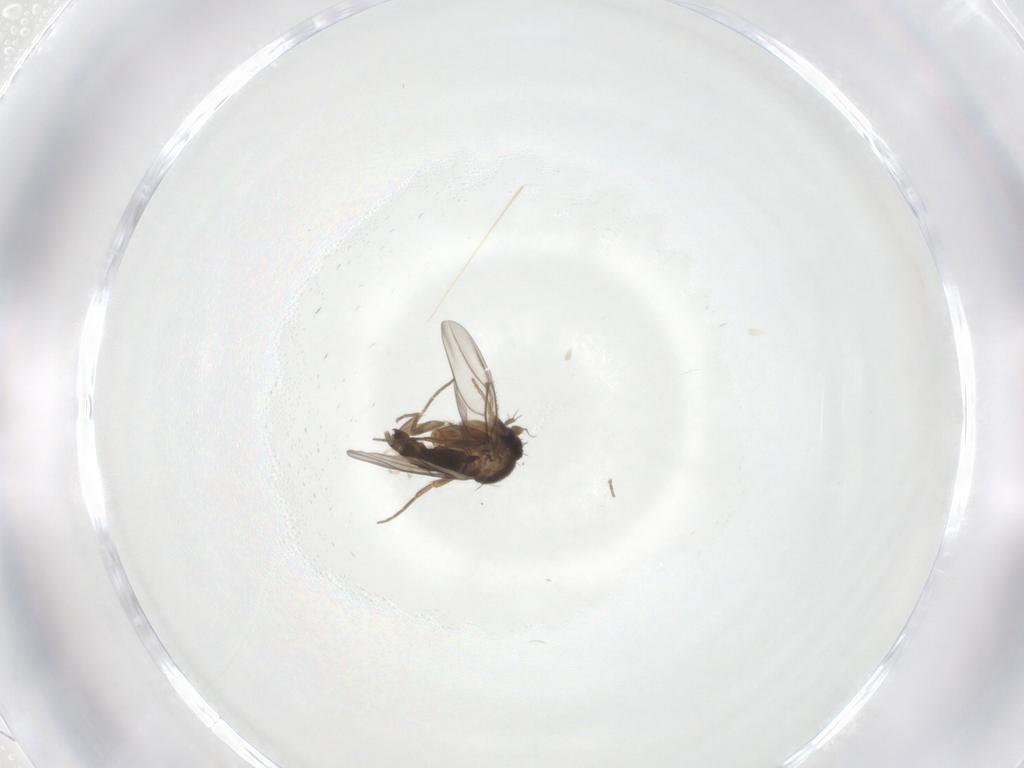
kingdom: Animalia
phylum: Arthropoda
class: Insecta
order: Diptera
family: Phoridae
